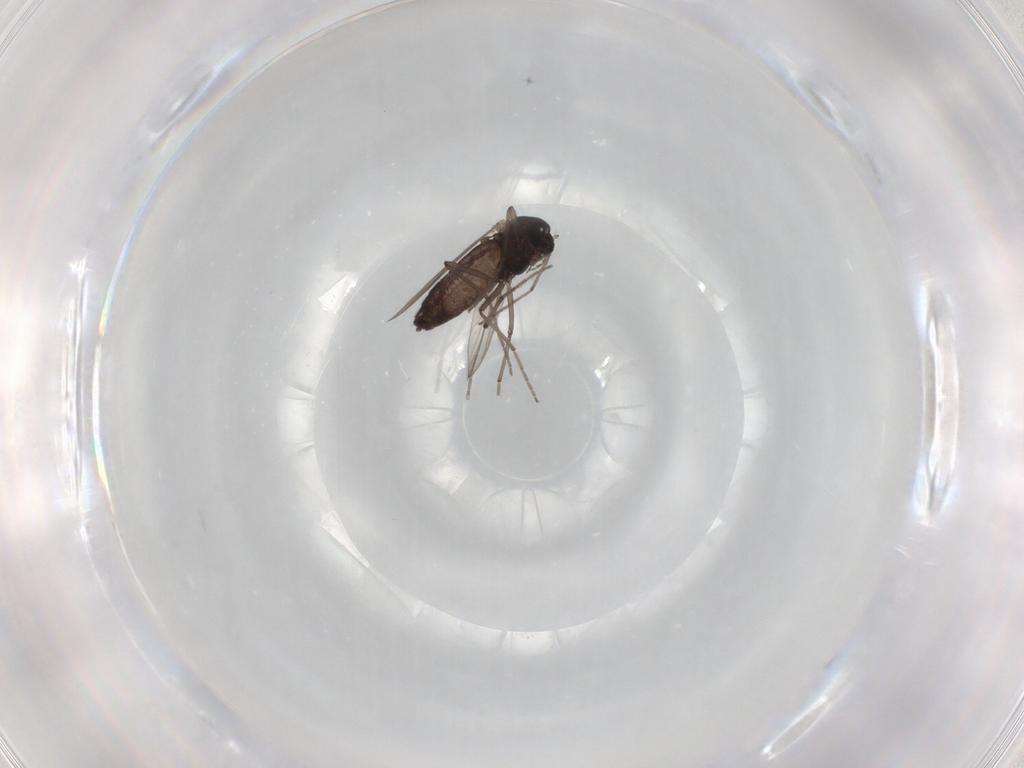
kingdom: Animalia
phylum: Arthropoda
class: Insecta
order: Diptera
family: Chironomidae
